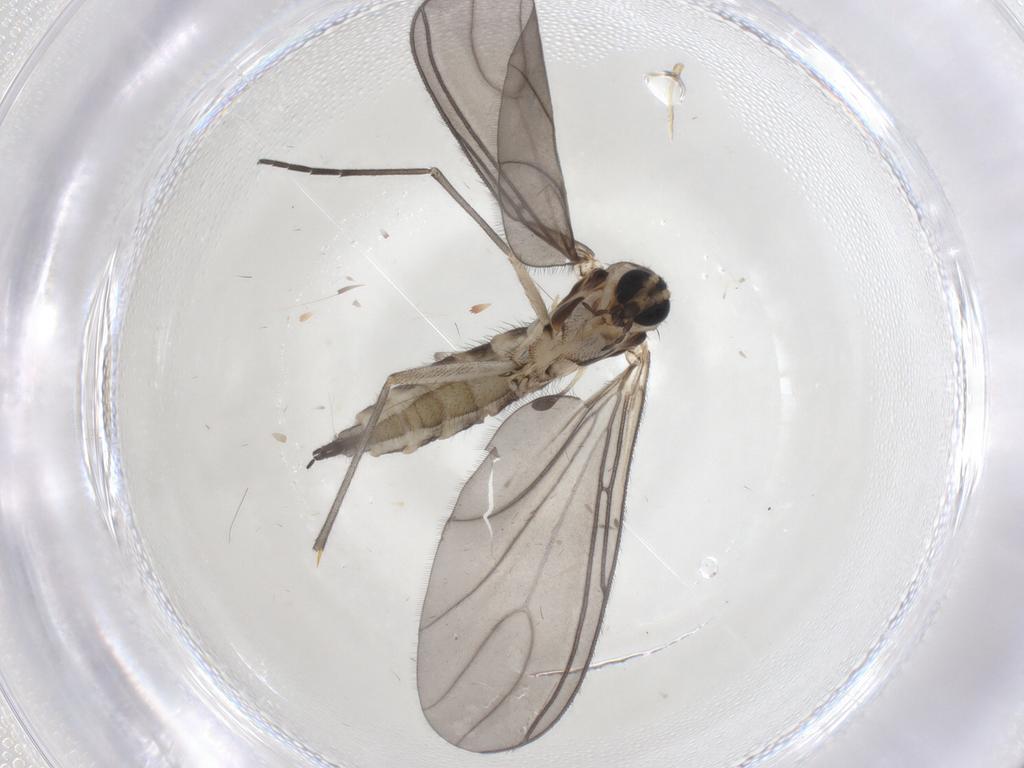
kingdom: Animalia
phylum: Arthropoda
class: Insecta
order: Diptera
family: Sciaridae
